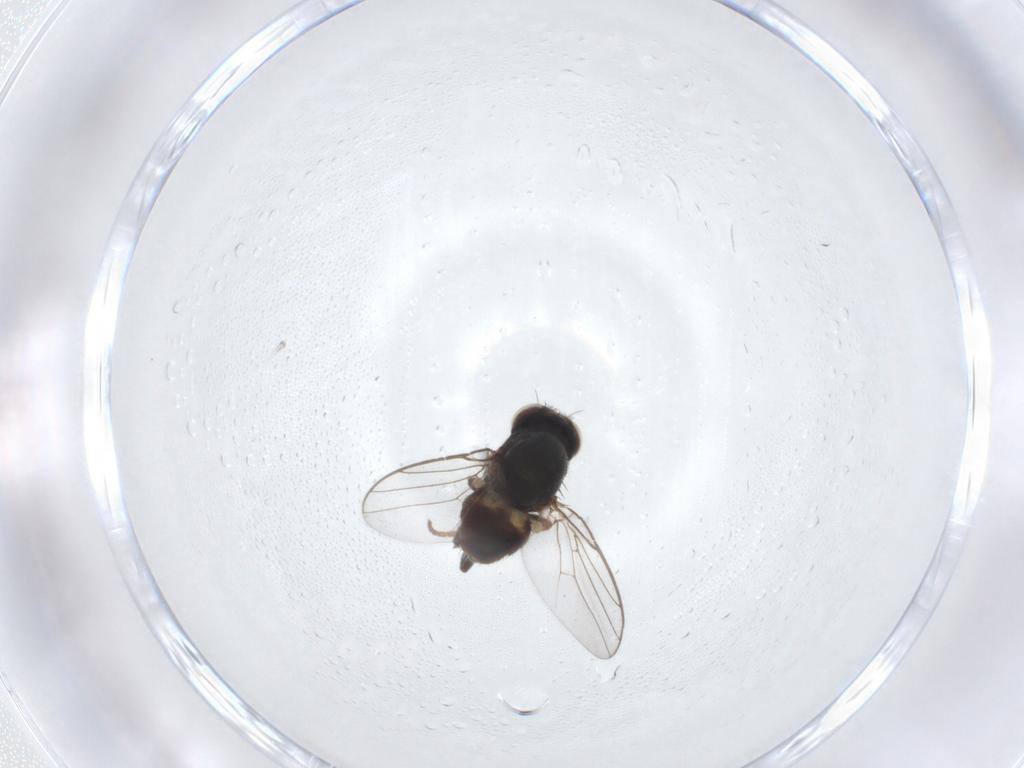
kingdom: Animalia
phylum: Arthropoda
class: Insecta
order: Diptera
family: Chloropidae
